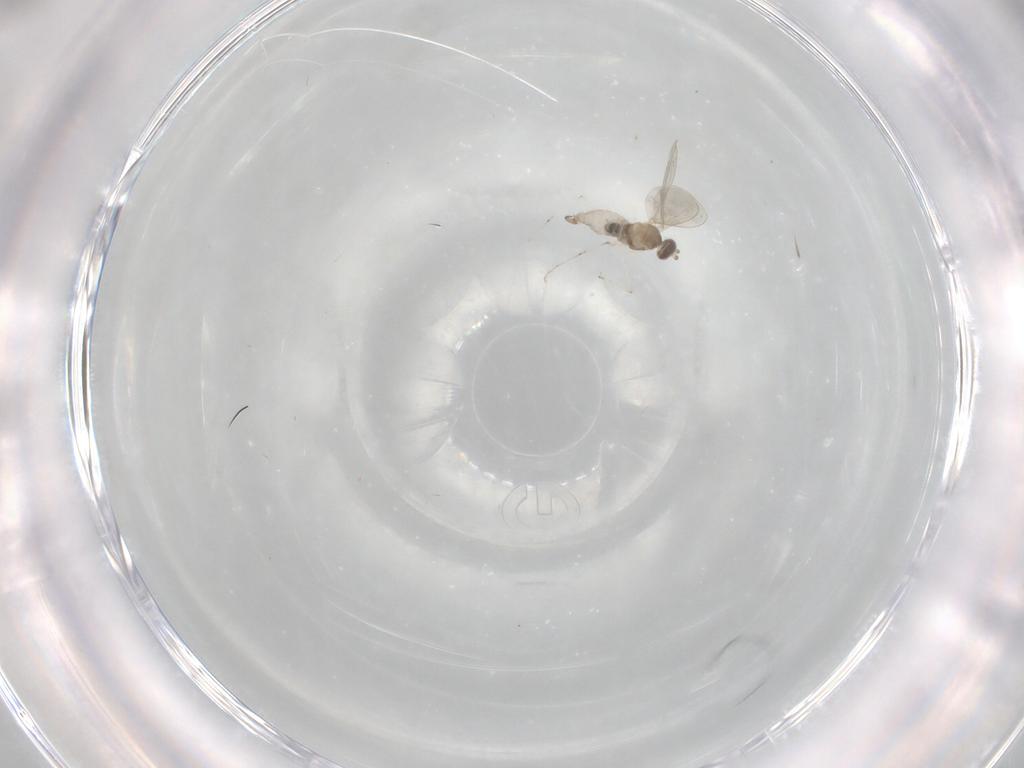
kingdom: Animalia
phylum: Arthropoda
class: Insecta
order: Diptera
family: Cecidomyiidae
